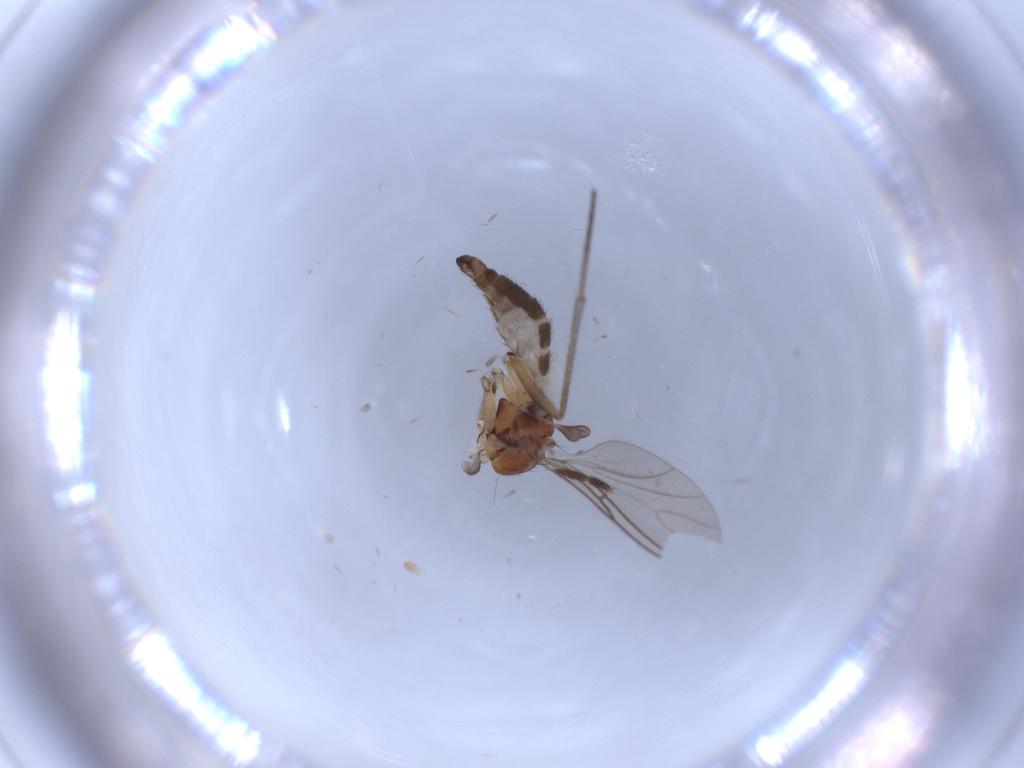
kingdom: Animalia
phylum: Arthropoda
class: Insecta
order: Diptera
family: Sciaridae
